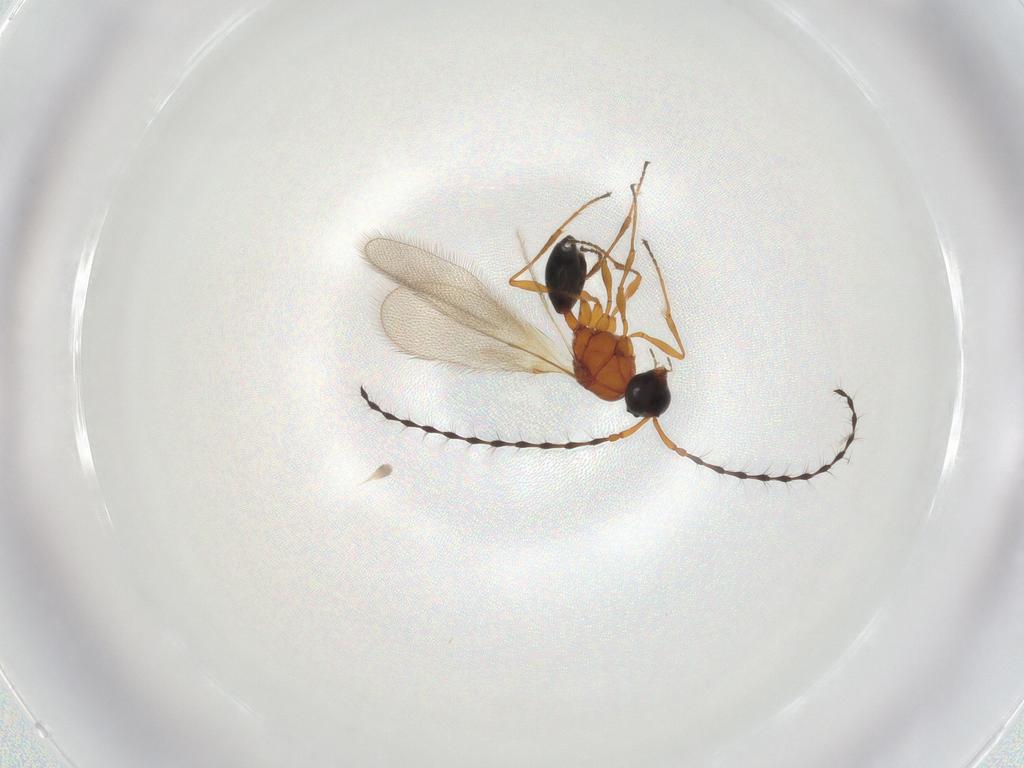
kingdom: Animalia
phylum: Arthropoda
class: Insecta
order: Hymenoptera
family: Diapriidae
